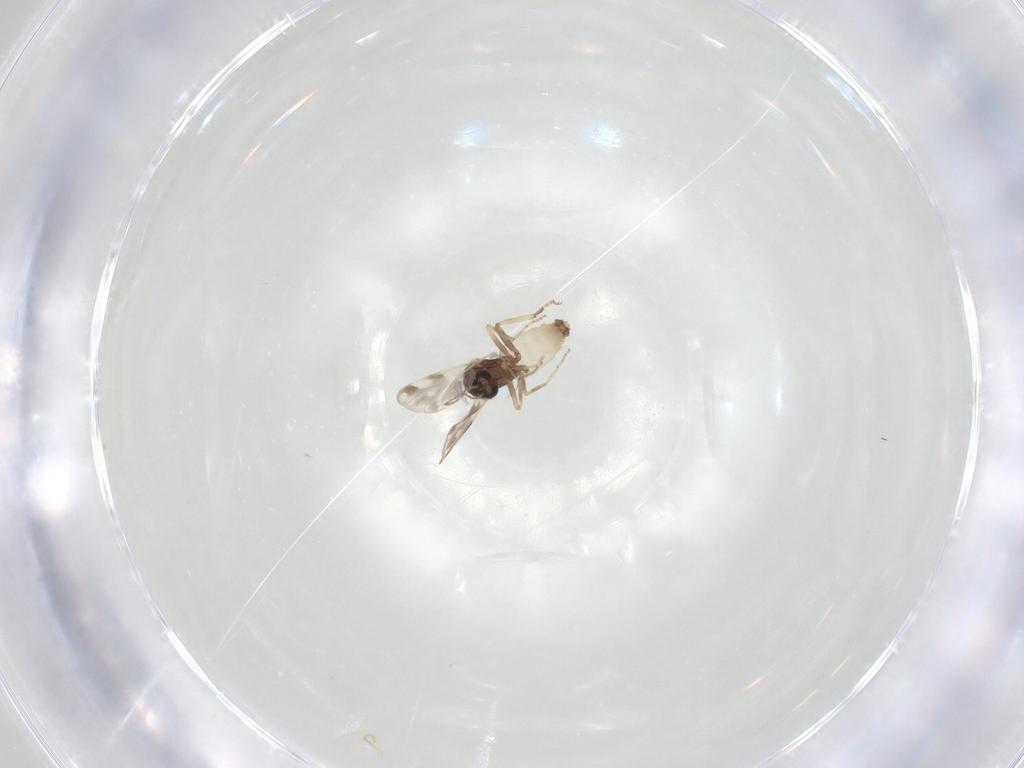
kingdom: Animalia
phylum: Arthropoda
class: Insecta
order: Diptera
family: Ceratopogonidae
